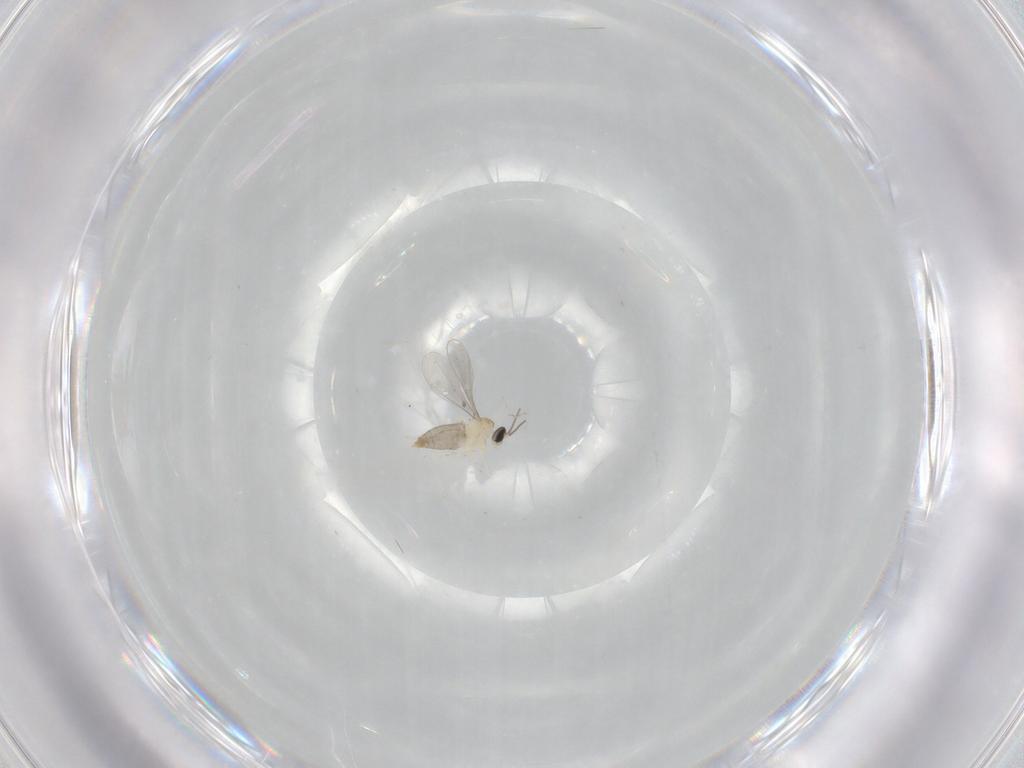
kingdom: Animalia
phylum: Arthropoda
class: Insecta
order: Diptera
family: Cecidomyiidae
